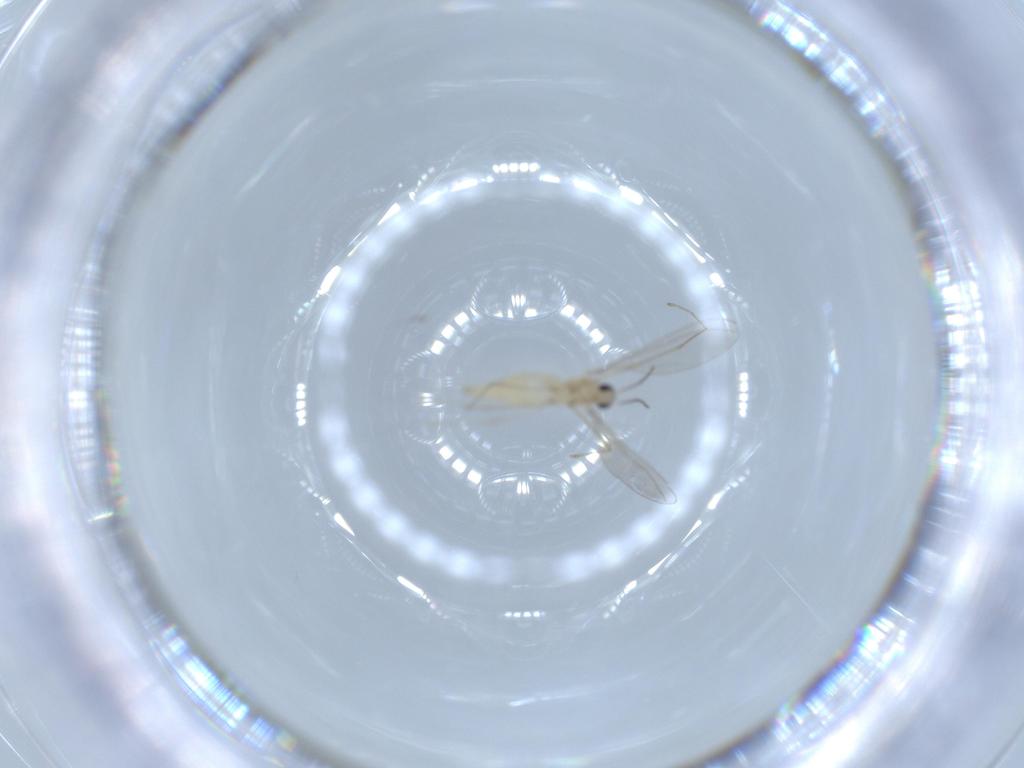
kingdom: Animalia
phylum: Arthropoda
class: Insecta
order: Diptera
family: Cecidomyiidae
